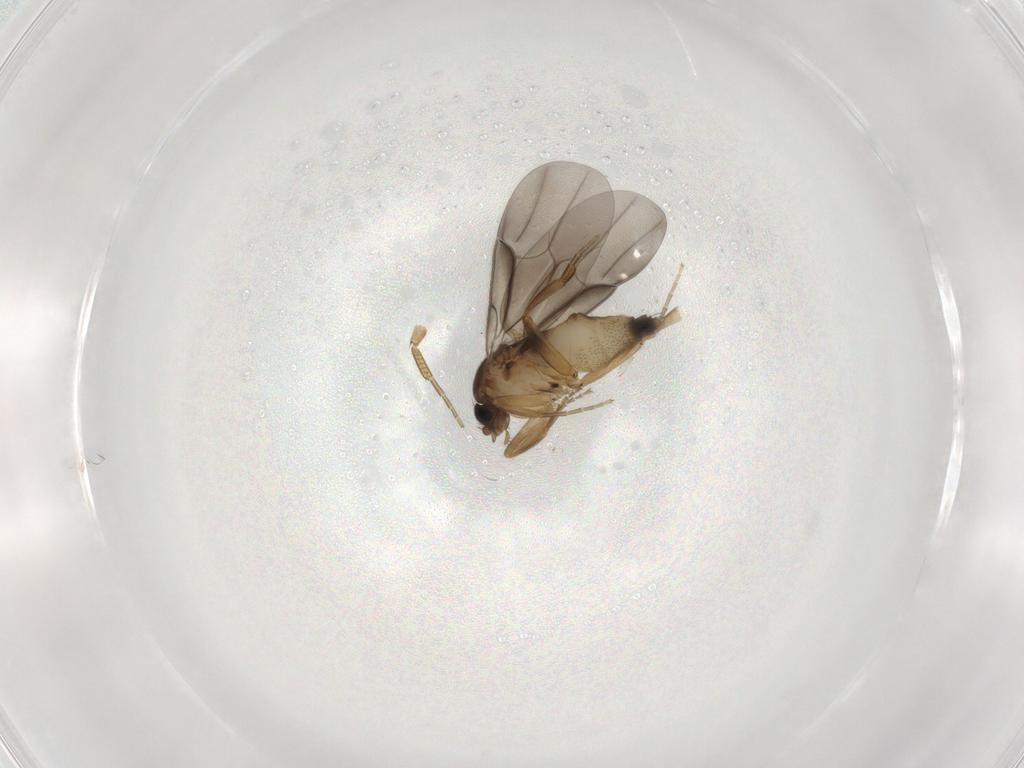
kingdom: Animalia
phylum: Arthropoda
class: Insecta
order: Diptera
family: Phoridae
